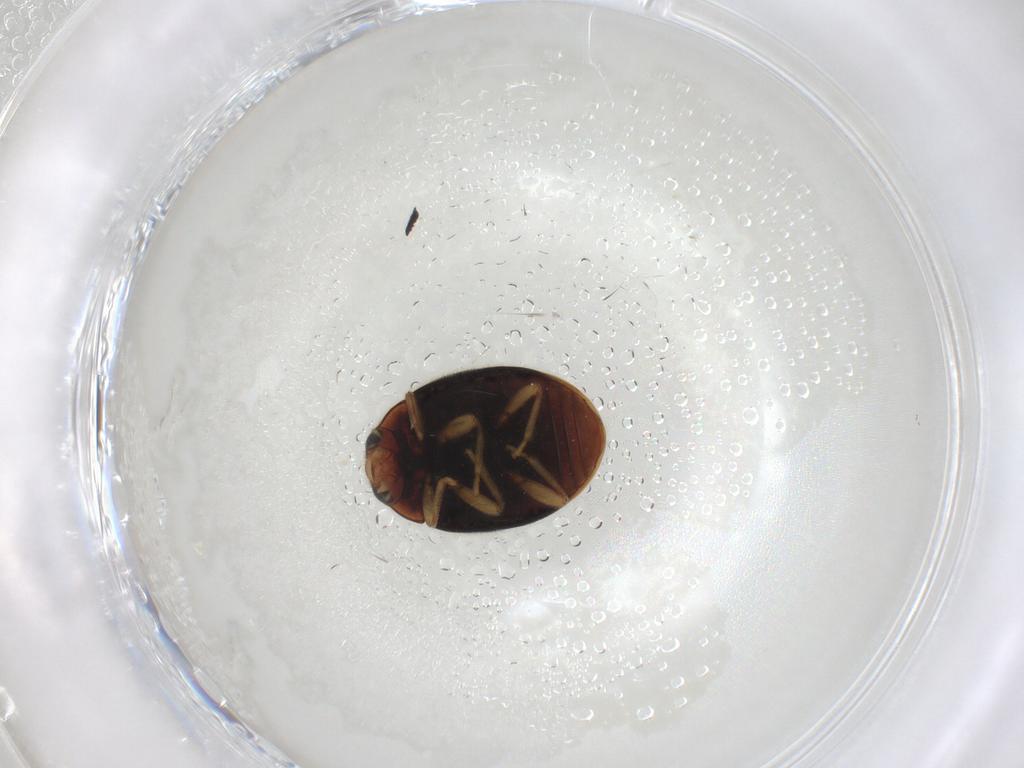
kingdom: Animalia
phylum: Arthropoda
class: Insecta
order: Coleoptera
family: Coccinellidae
